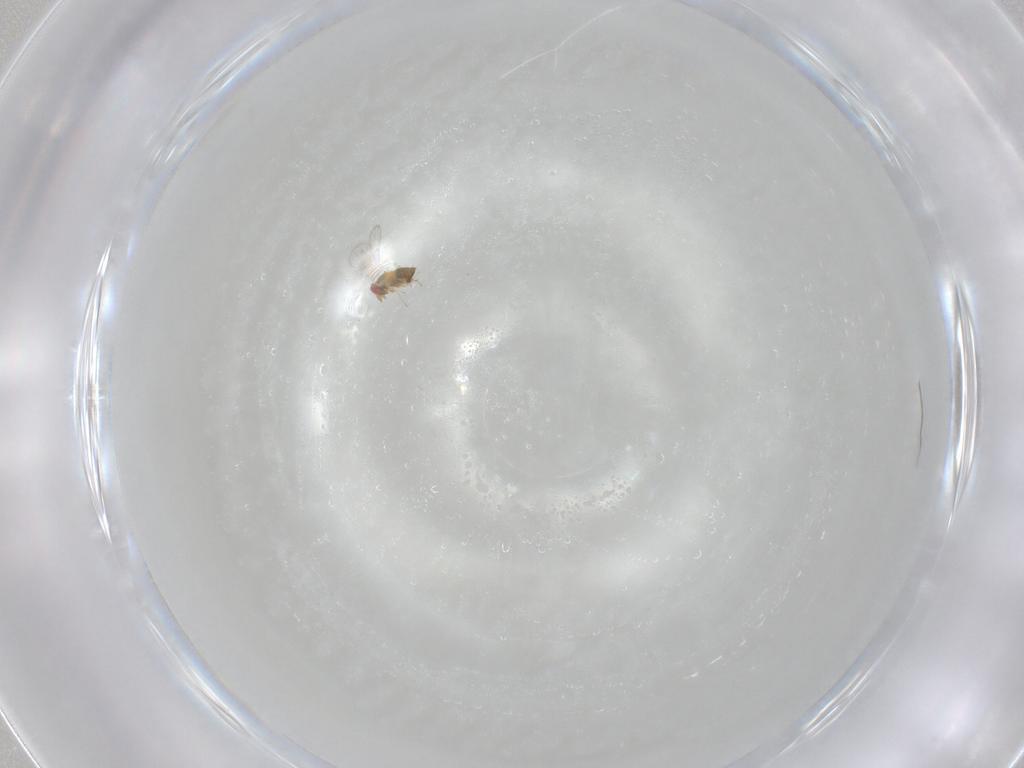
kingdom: Animalia
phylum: Arthropoda
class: Insecta
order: Hymenoptera
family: Trichogrammatidae
